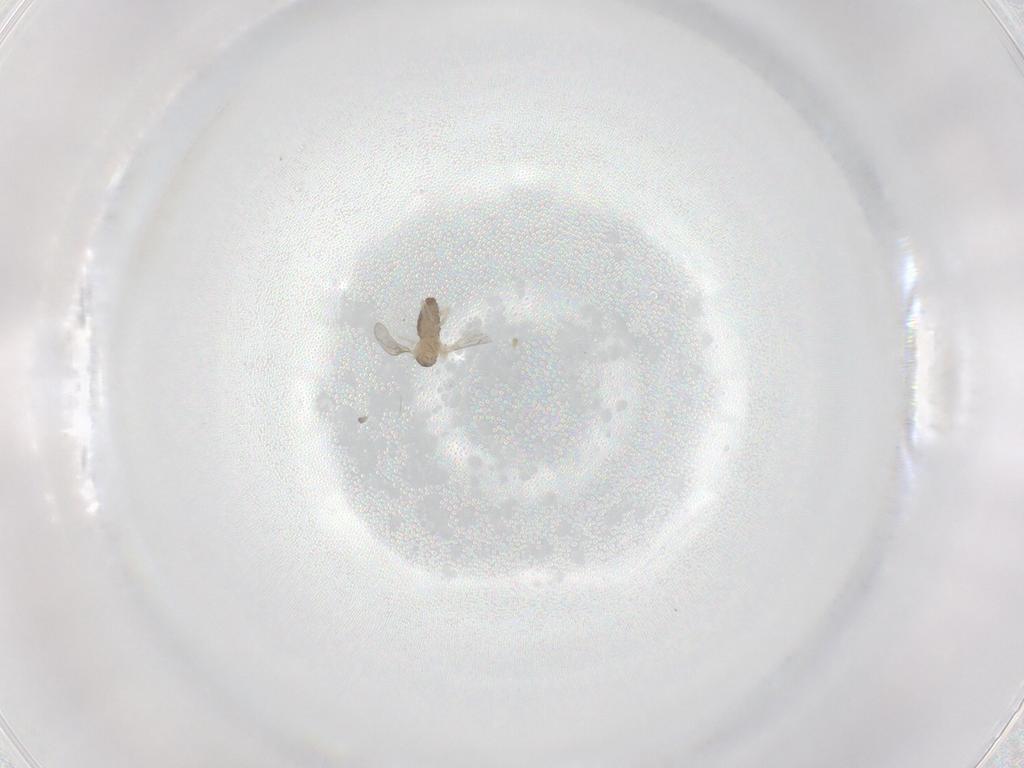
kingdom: Animalia
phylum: Arthropoda
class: Insecta
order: Diptera
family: Cecidomyiidae
